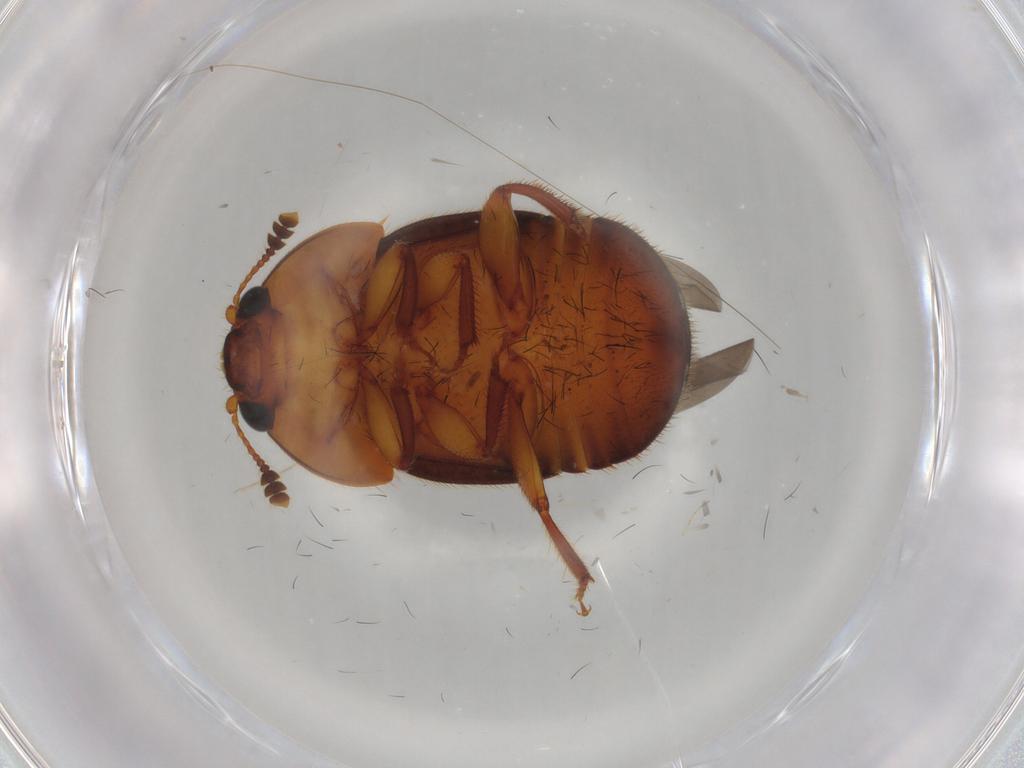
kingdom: Animalia
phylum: Arthropoda
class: Insecta
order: Coleoptera
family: Nitidulidae
